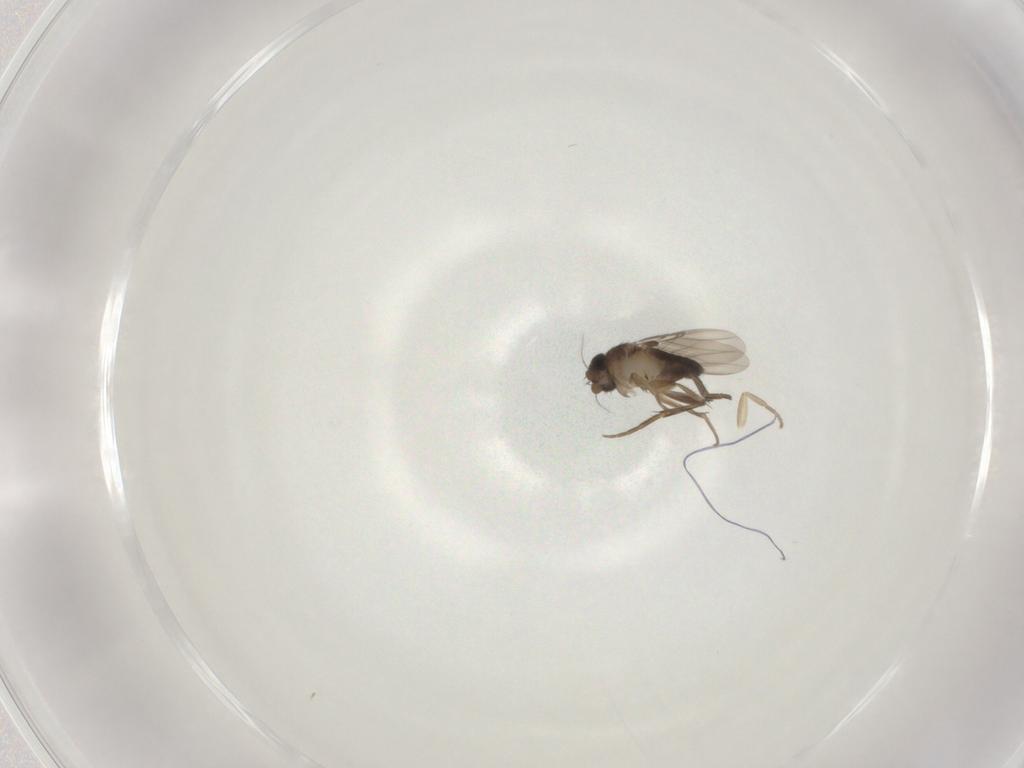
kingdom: Animalia
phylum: Arthropoda
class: Insecta
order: Diptera
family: Phoridae
